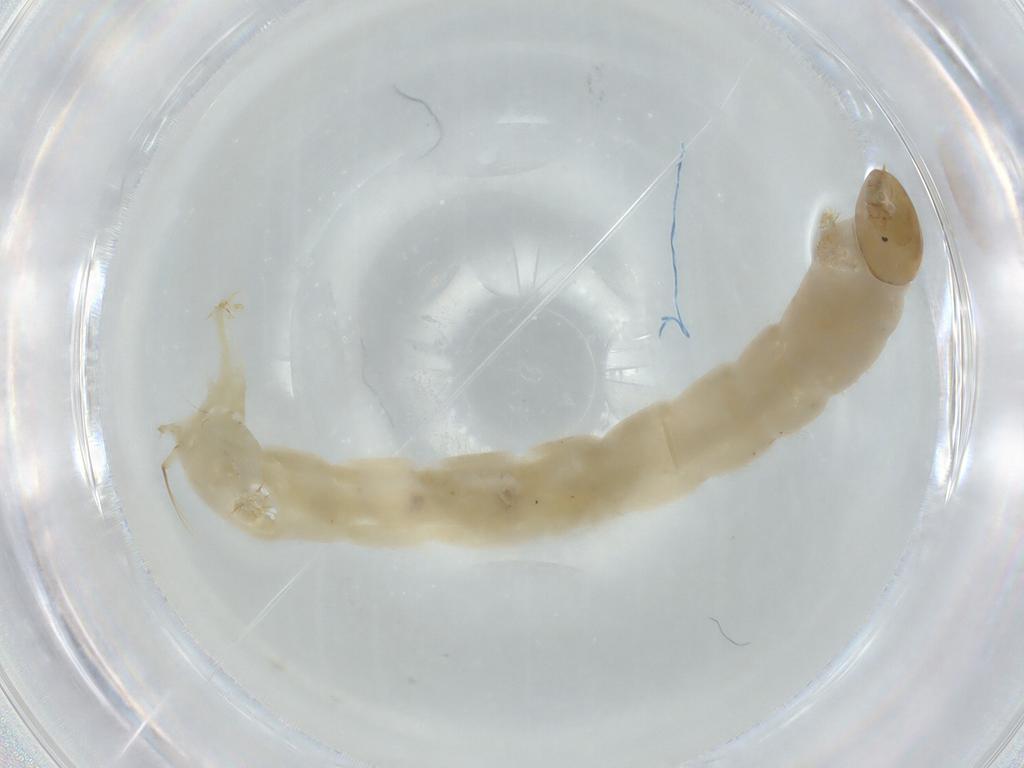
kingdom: Animalia
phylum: Arthropoda
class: Insecta
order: Diptera
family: Chironomidae
